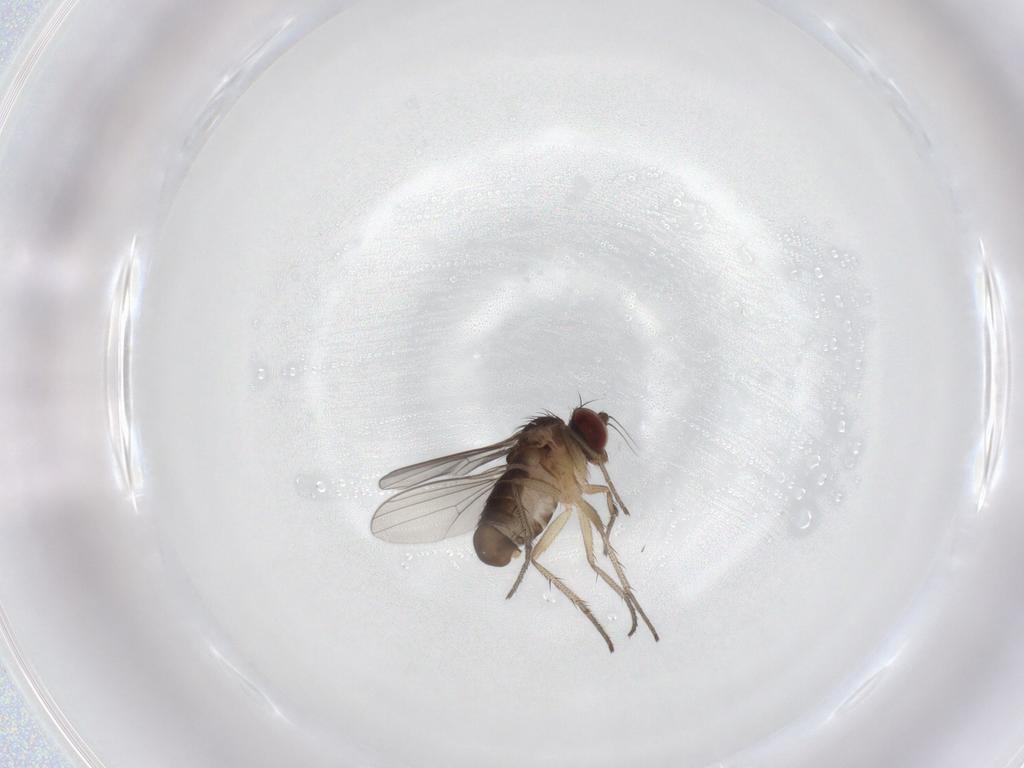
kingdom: Animalia
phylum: Arthropoda
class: Insecta
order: Diptera
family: Dolichopodidae
